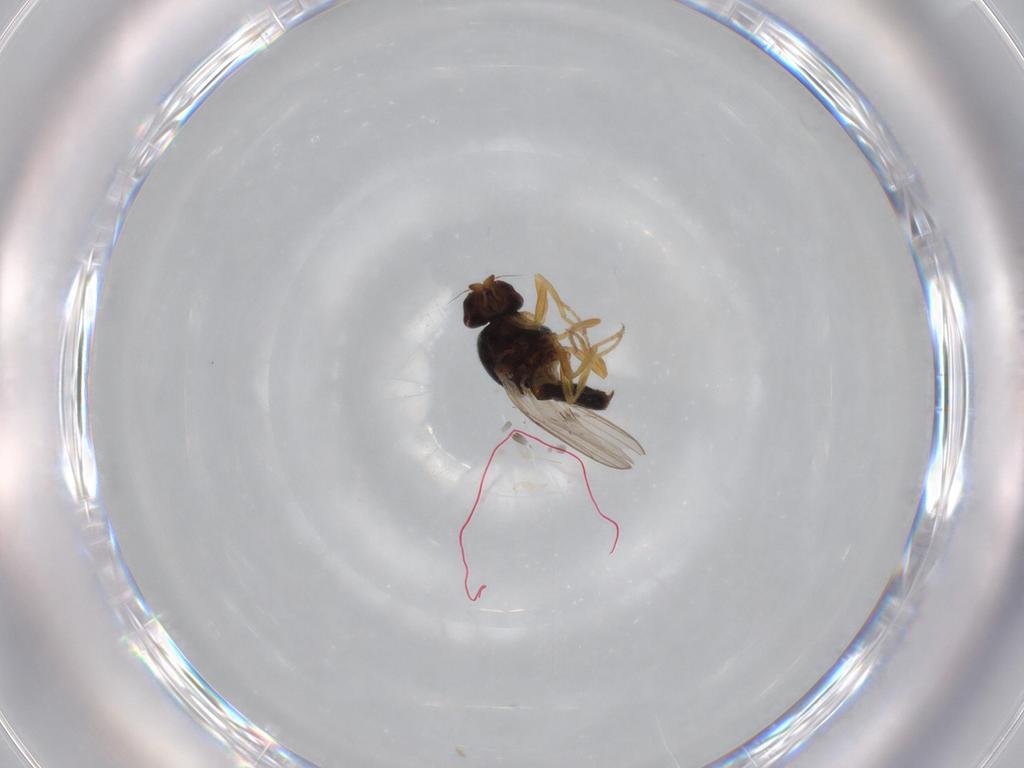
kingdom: Animalia
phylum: Arthropoda
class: Insecta
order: Diptera
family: Chloropidae
